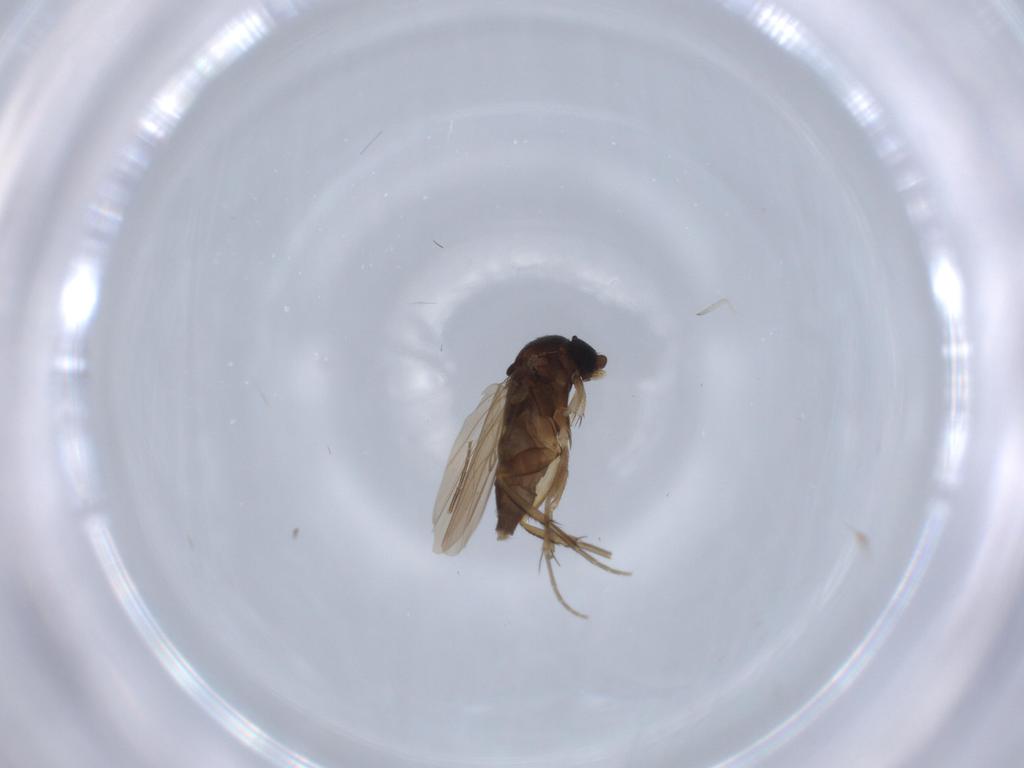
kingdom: Animalia
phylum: Arthropoda
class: Insecta
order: Diptera
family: Phoridae
